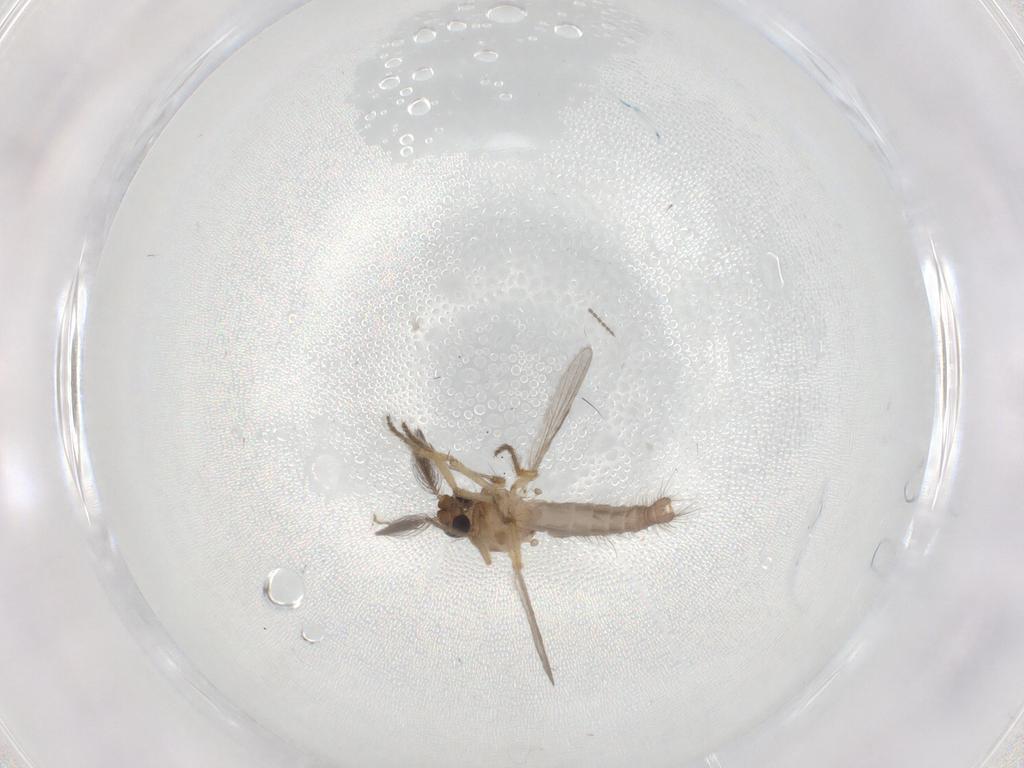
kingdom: Animalia
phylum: Arthropoda
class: Insecta
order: Diptera
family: Ceratopogonidae
